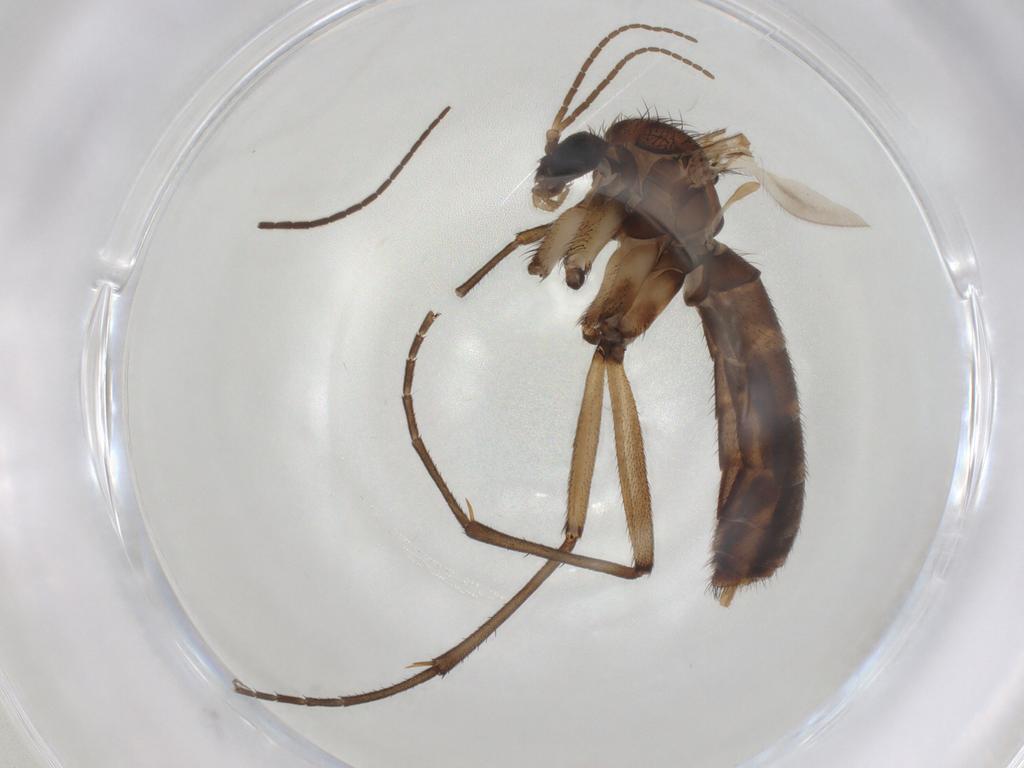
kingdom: Animalia
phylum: Arthropoda
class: Insecta
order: Diptera
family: Mycetophilidae
